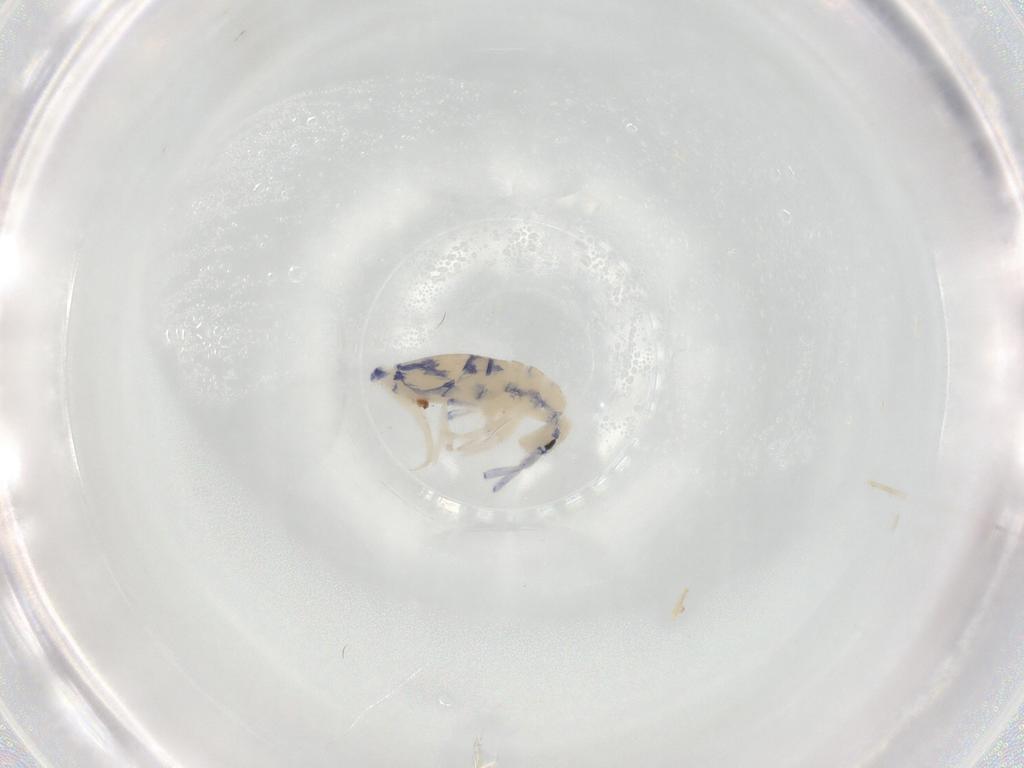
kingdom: Animalia
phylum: Arthropoda
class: Collembola
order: Entomobryomorpha
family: Entomobryidae
